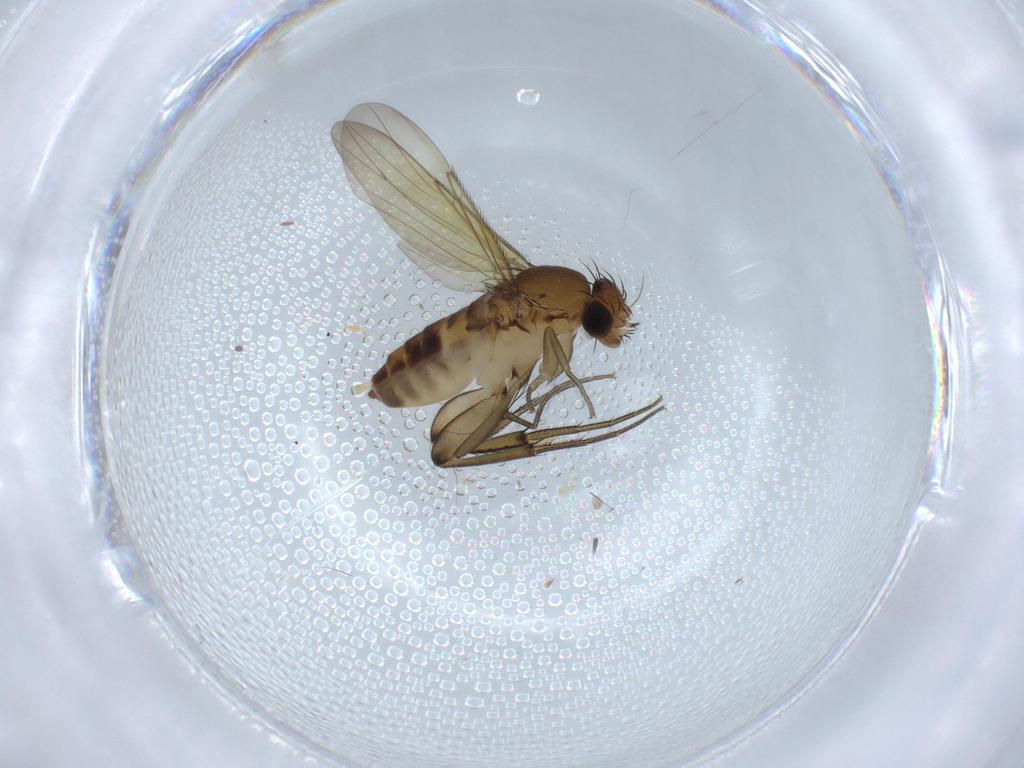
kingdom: Animalia
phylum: Arthropoda
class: Insecta
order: Diptera
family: Phoridae
